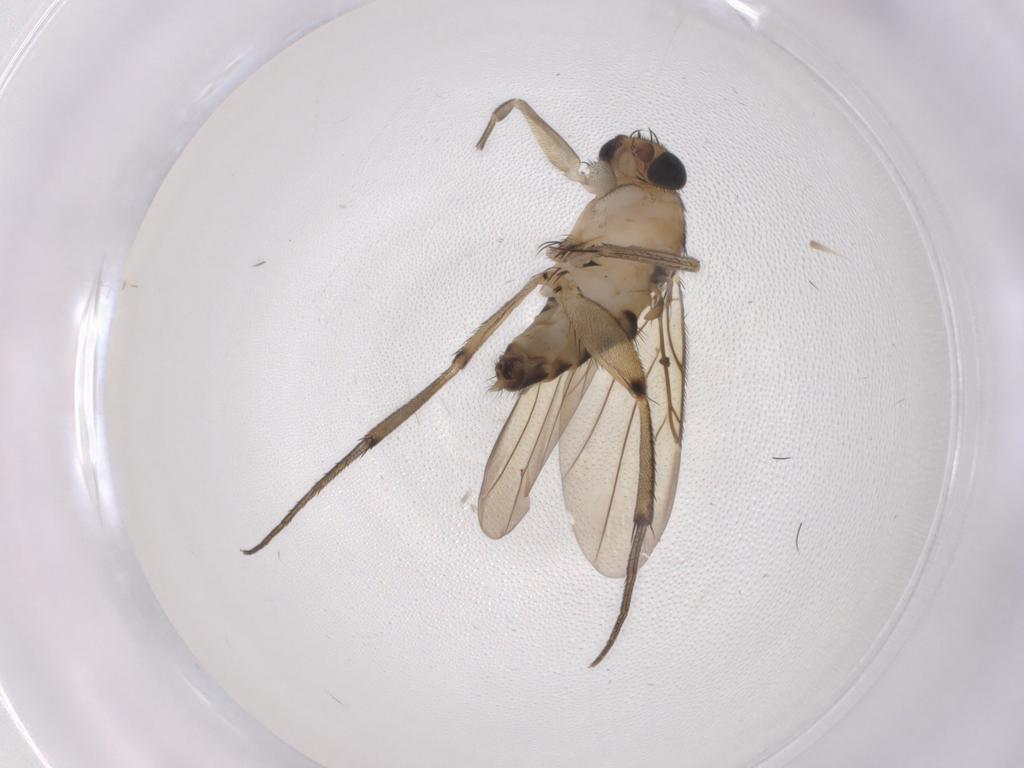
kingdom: Animalia
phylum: Arthropoda
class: Insecta
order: Diptera
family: Phoridae
